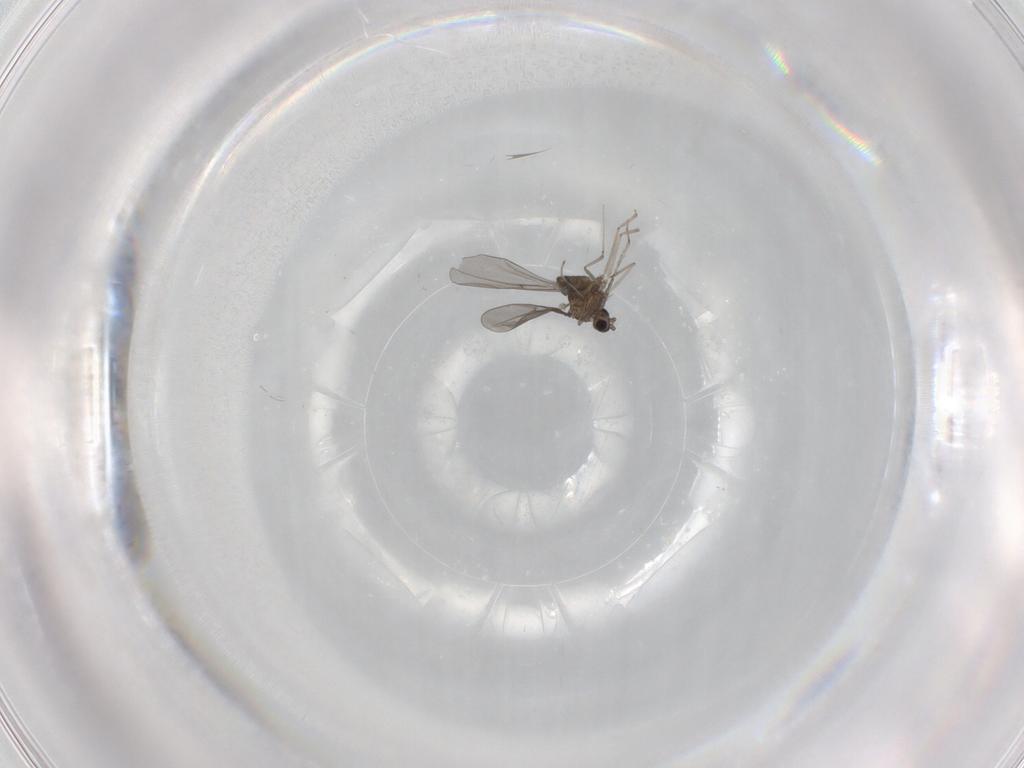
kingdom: Animalia
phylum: Arthropoda
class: Insecta
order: Diptera
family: Cecidomyiidae
